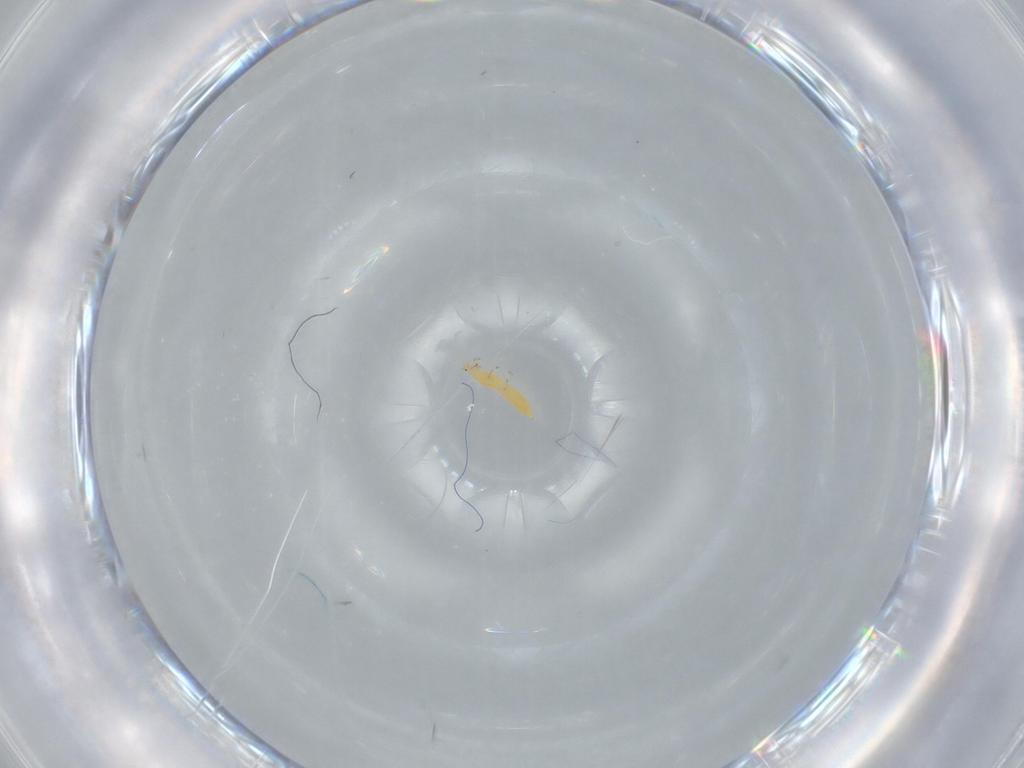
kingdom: Animalia
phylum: Arthropoda
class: Insecta
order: Thysanoptera
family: Thripidae
